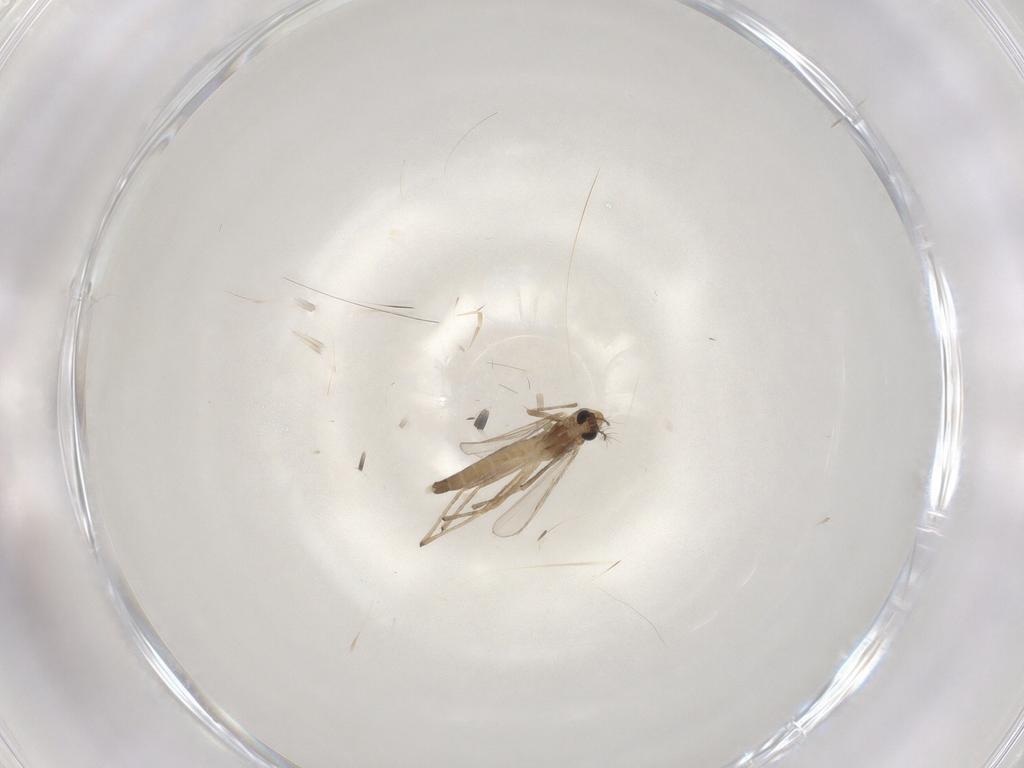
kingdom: Animalia
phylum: Arthropoda
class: Insecta
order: Diptera
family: Chironomidae
